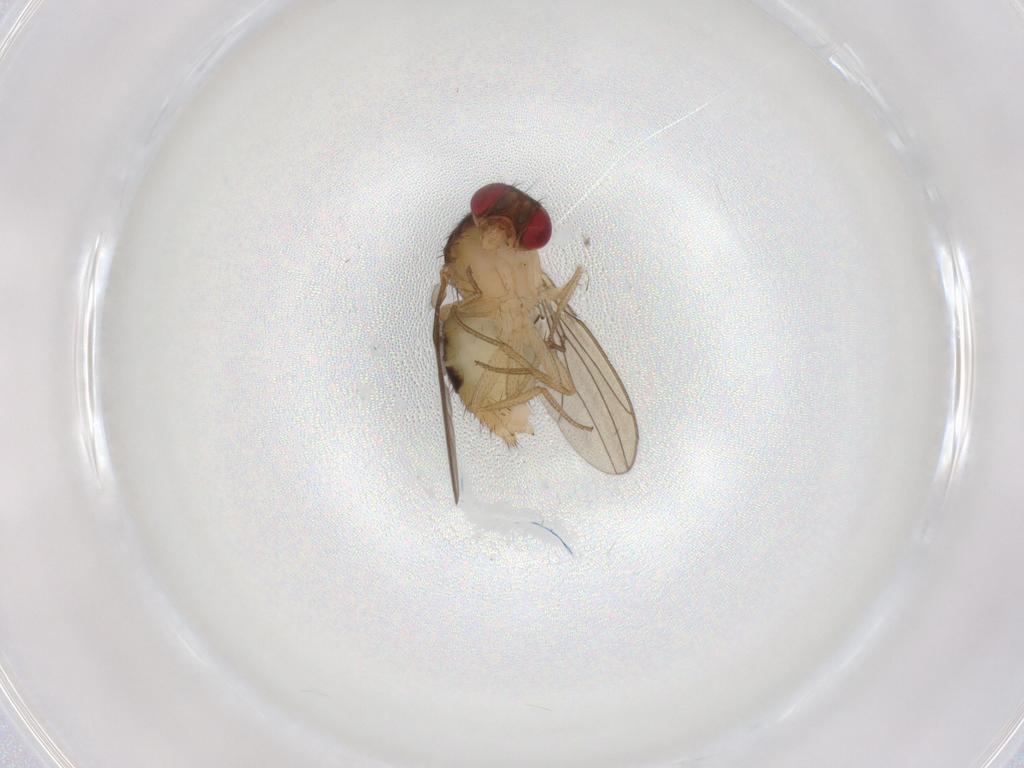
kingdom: Animalia
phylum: Arthropoda
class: Insecta
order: Diptera
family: Drosophilidae
